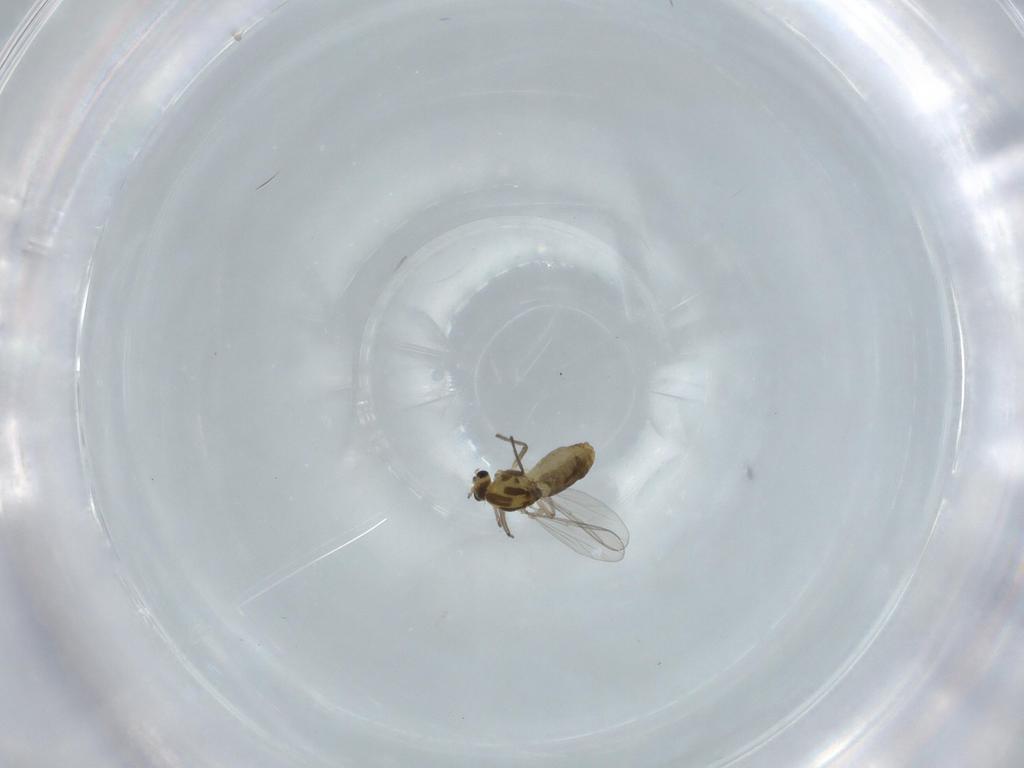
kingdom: Animalia
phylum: Arthropoda
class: Insecta
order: Diptera
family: Chironomidae
